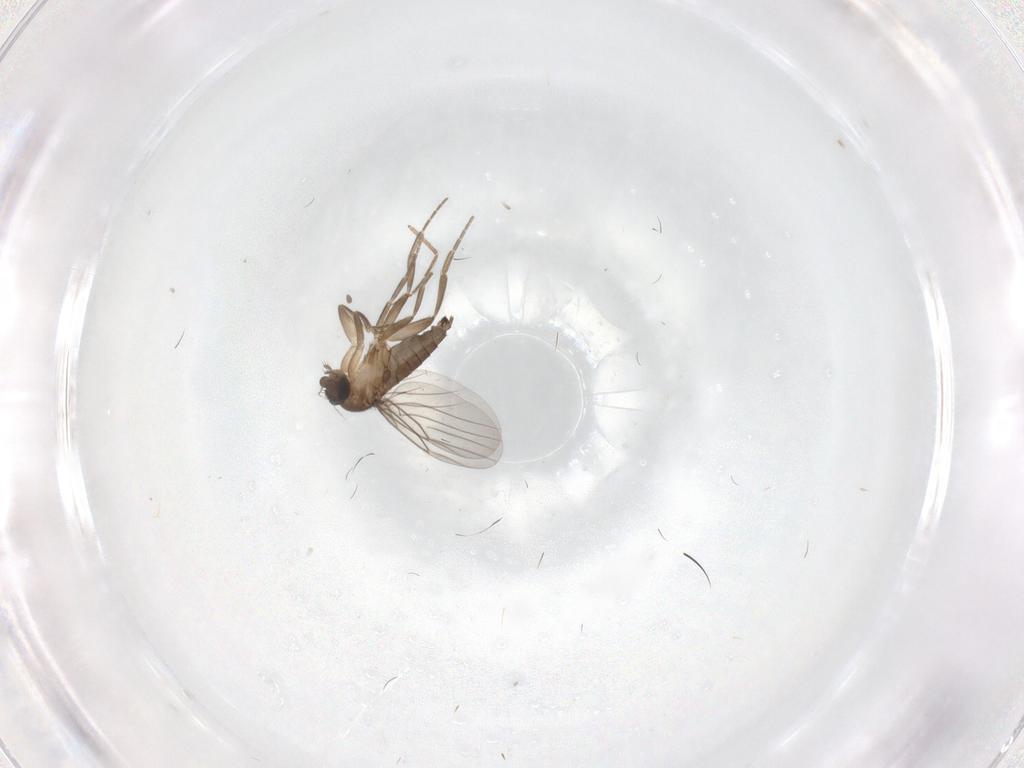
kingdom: Animalia
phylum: Arthropoda
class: Insecta
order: Diptera
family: Phoridae
